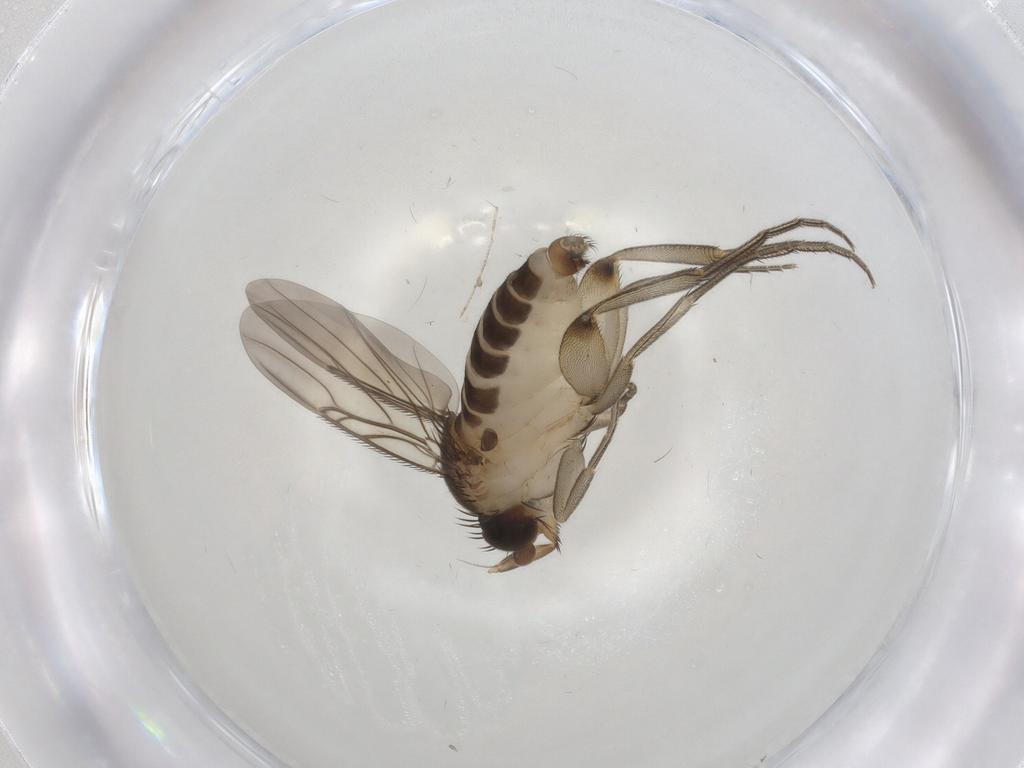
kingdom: Animalia
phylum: Arthropoda
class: Insecta
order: Diptera
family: Phoridae
